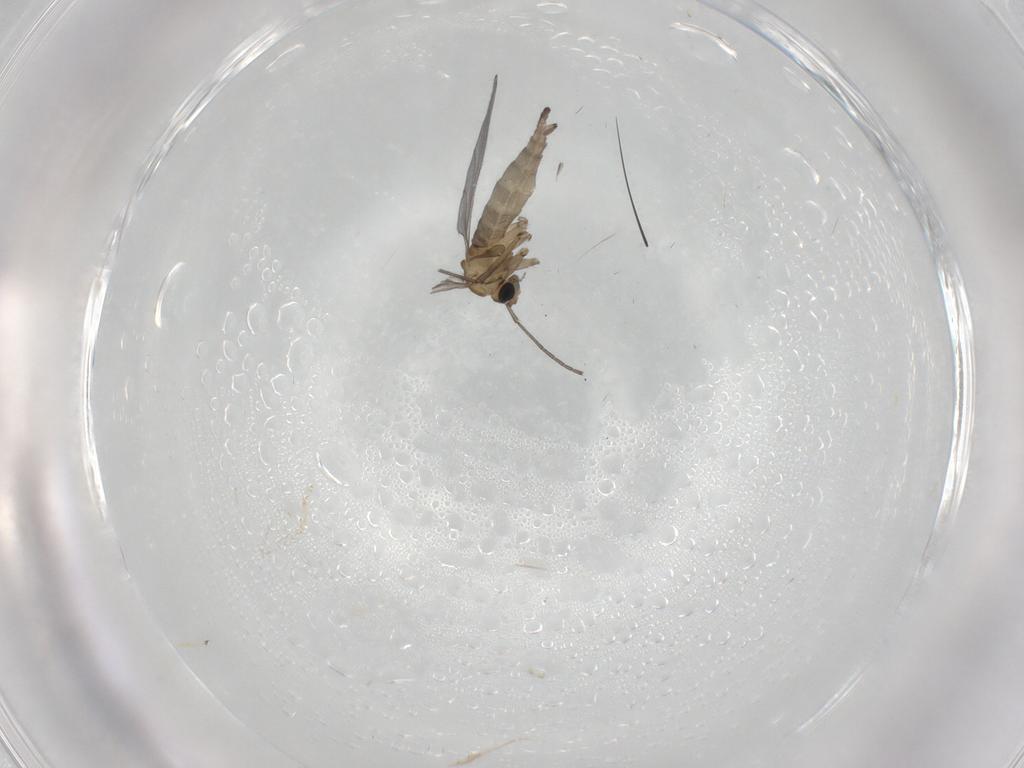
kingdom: Animalia
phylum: Arthropoda
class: Insecta
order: Diptera
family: Sciaridae
